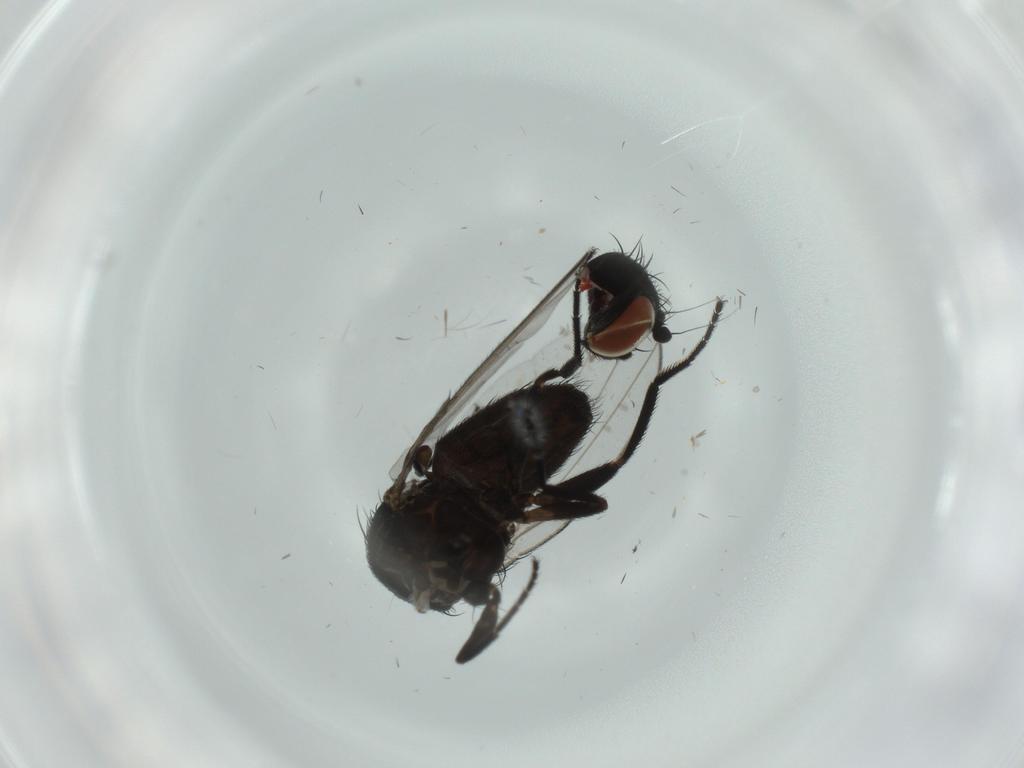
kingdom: Animalia
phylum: Arthropoda
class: Insecta
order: Diptera
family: Milichiidae
